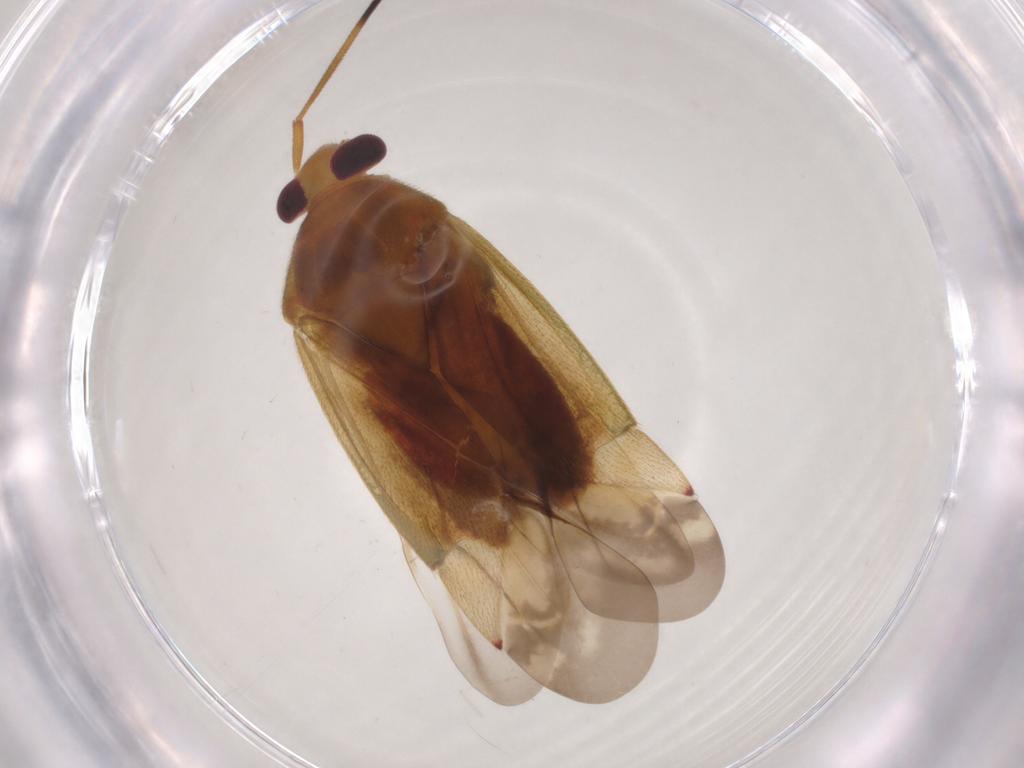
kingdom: Animalia
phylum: Arthropoda
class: Insecta
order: Hemiptera
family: Miridae
